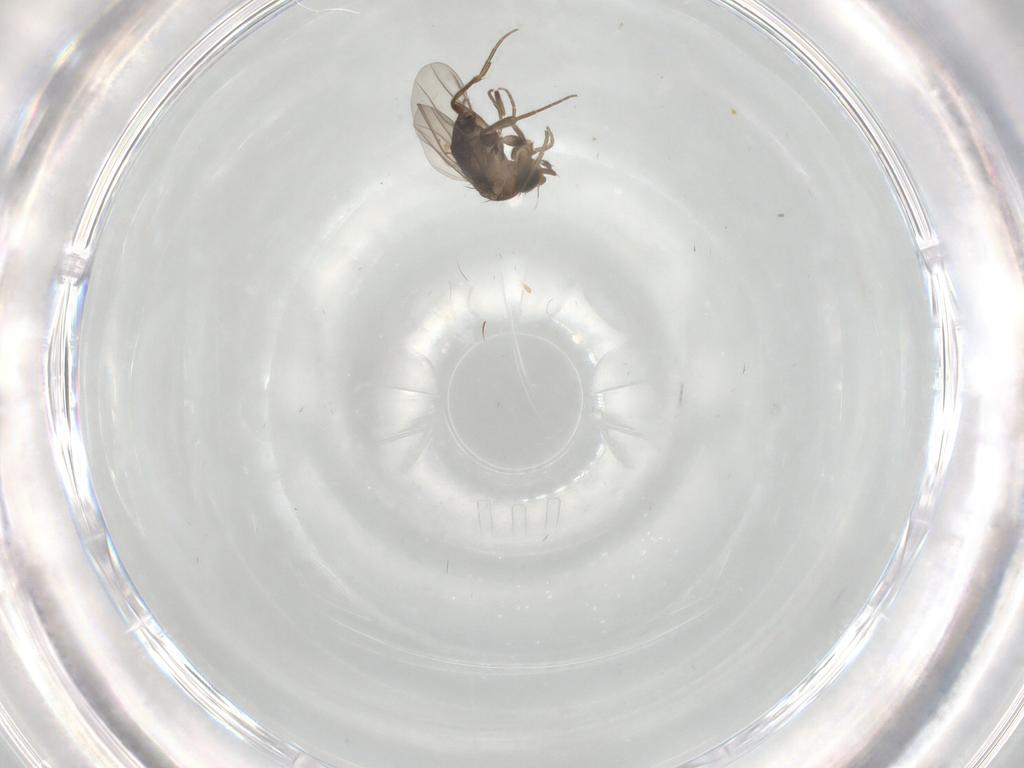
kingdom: Animalia
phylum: Arthropoda
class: Insecta
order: Diptera
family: Phoridae
